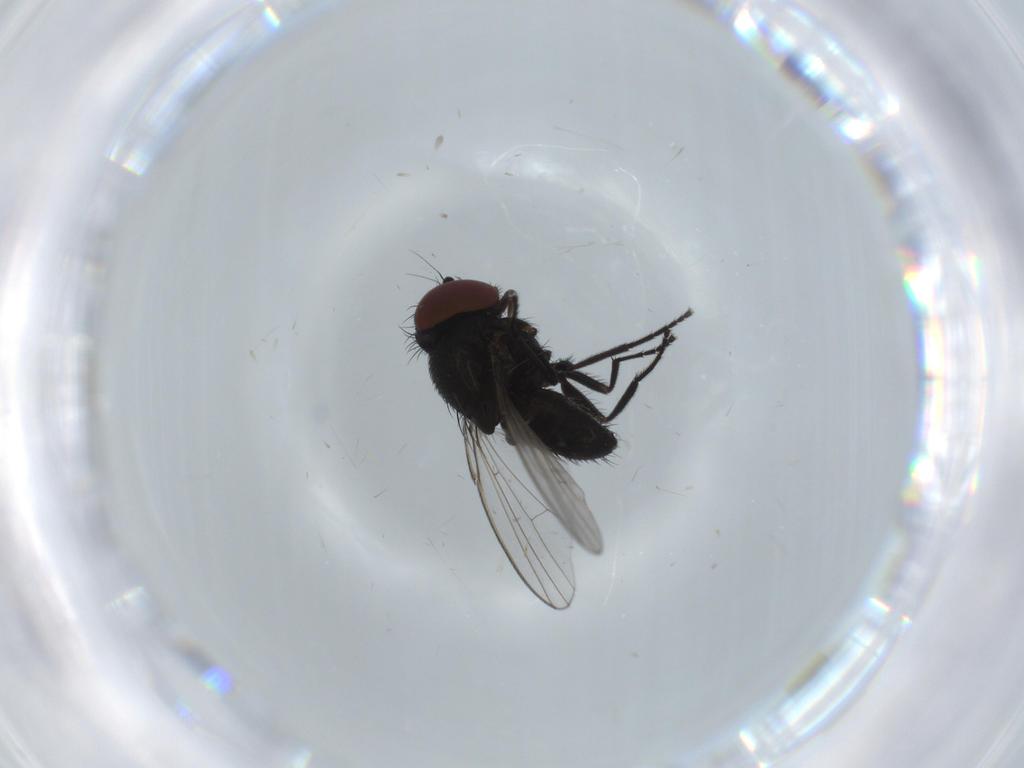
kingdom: Animalia
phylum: Arthropoda
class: Insecta
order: Diptera
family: Milichiidae
